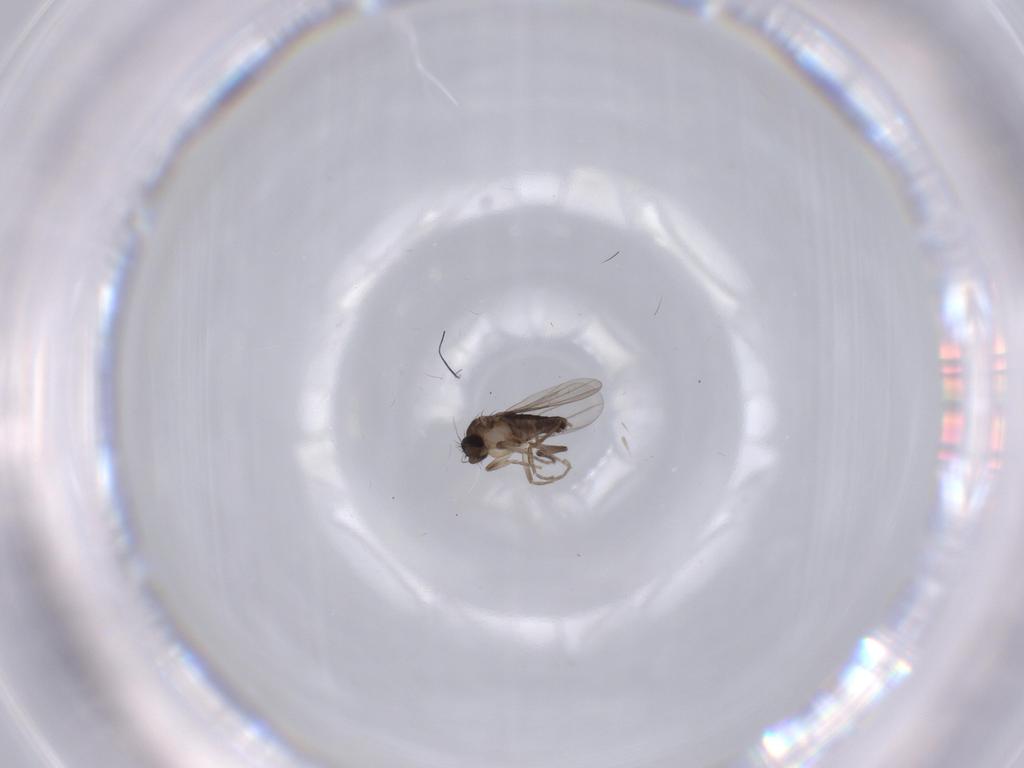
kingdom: Animalia
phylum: Arthropoda
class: Insecta
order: Diptera
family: Phoridae
